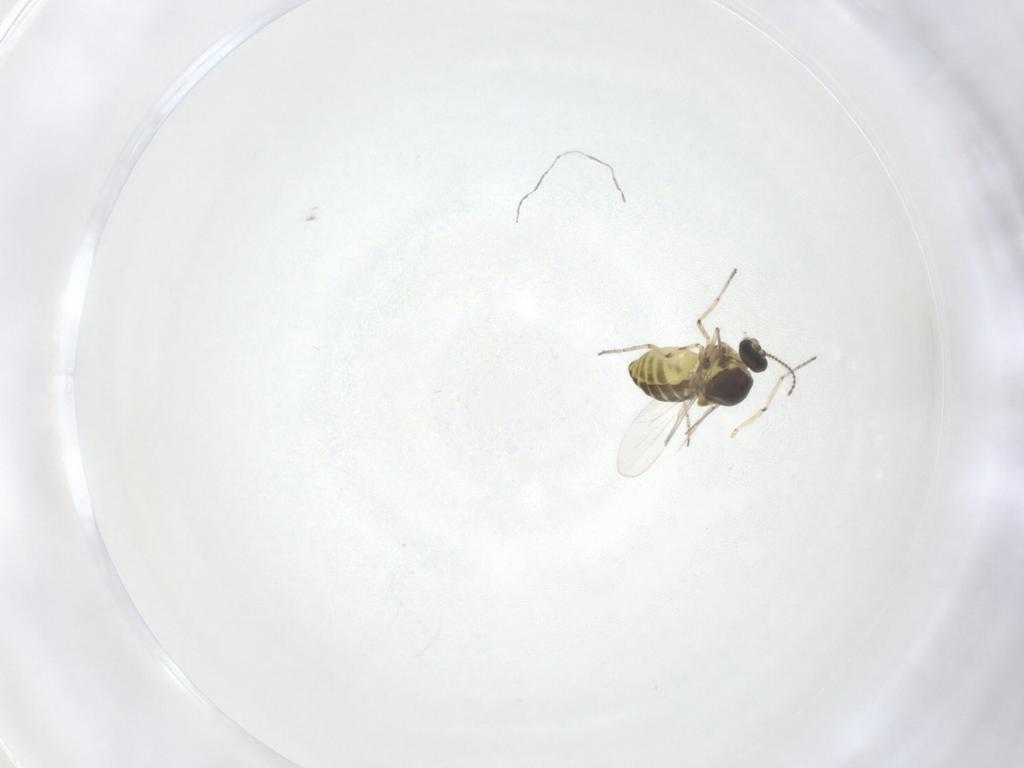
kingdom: Animalia
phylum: Arthropoda
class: Insecta
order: Diptera
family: Ceratopogonidae
